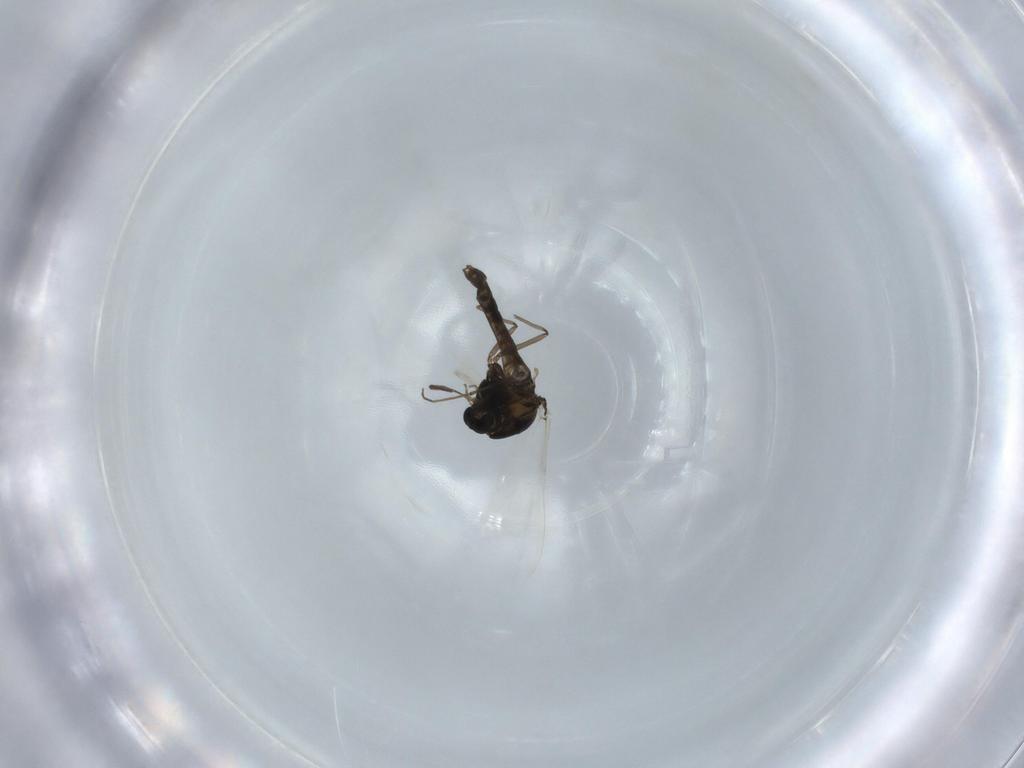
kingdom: Animalia
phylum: Arthropoda
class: Insecta
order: Diptera
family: Chironomidae
